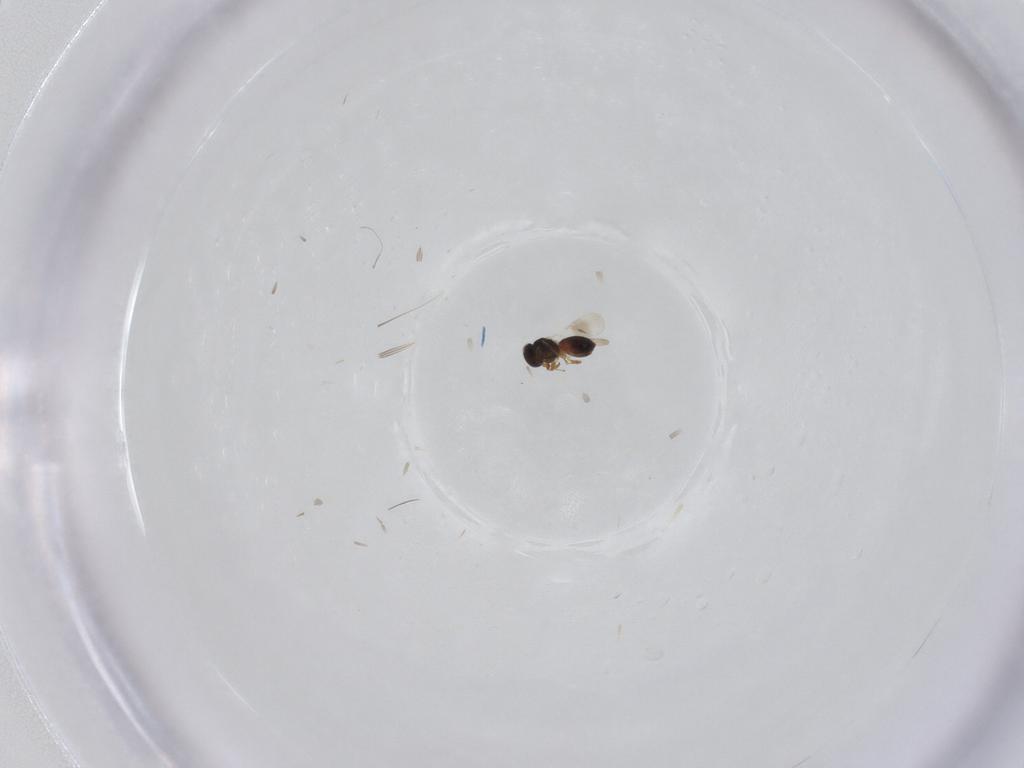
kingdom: Animalia
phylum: Arthropoda
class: Insecta
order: Hymenoptera
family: Platygastridae
